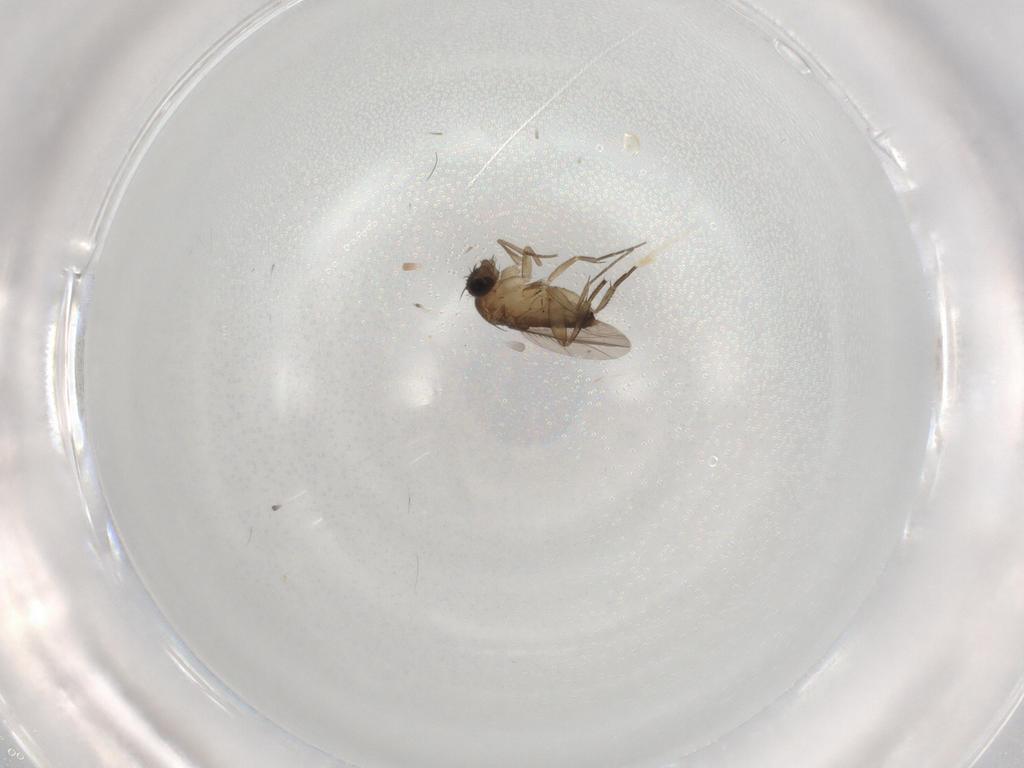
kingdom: Animalia
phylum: Arthropoda
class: Insecta
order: Diptera
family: Phoridae
